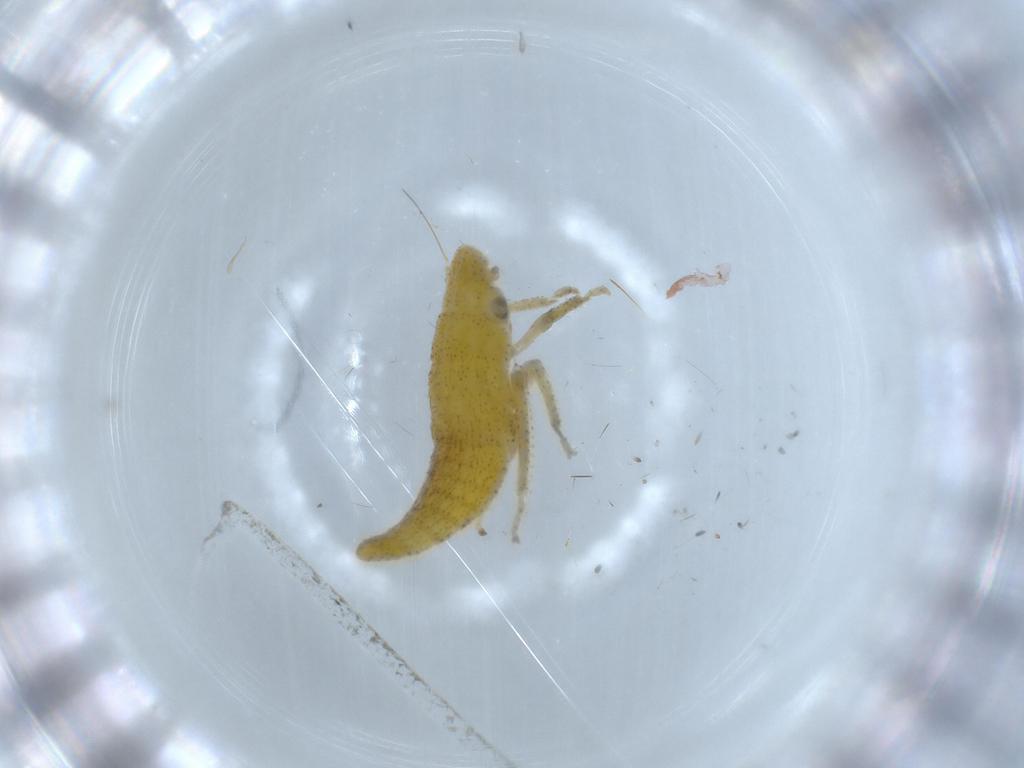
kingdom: Animalia
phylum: Arthropoda
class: Insecta
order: Hemiptera
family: Cicadellidae
